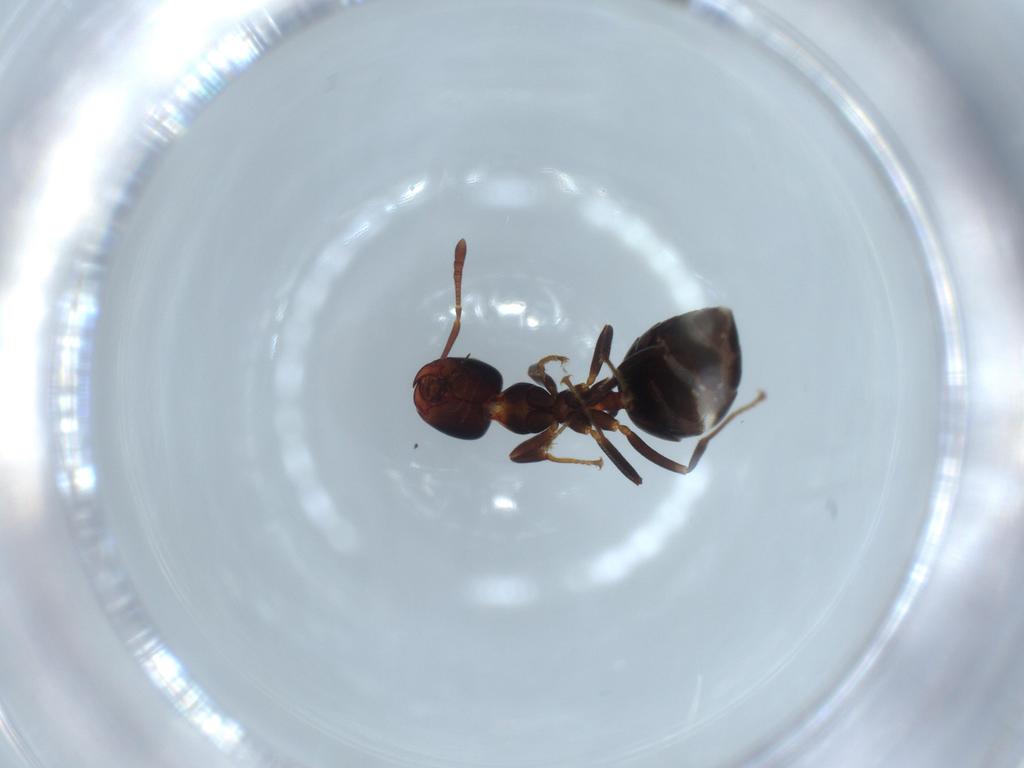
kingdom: Animalia
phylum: Arthropoda
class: Insecta
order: Hymenoptera
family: Formicidae
